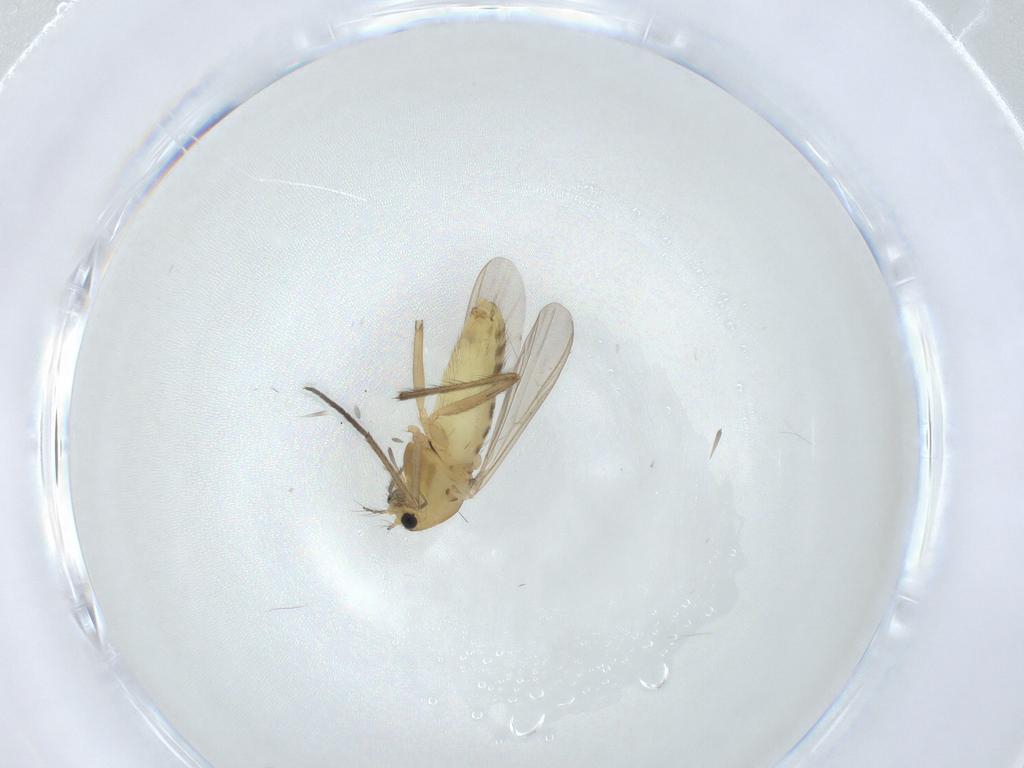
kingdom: Animalia
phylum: Arthropoda
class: Insecta
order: Diptera
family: Chironomidae
